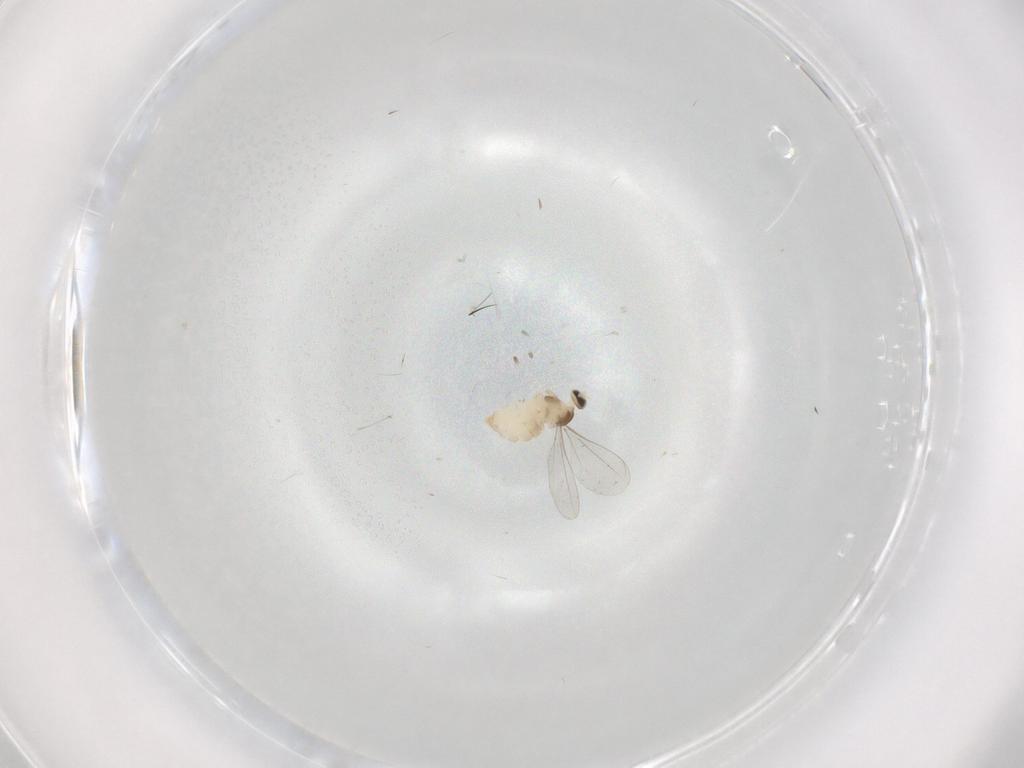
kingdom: Animalia
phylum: Arthropoda
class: Insecta
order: Diptera
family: Cecidomyiidae
